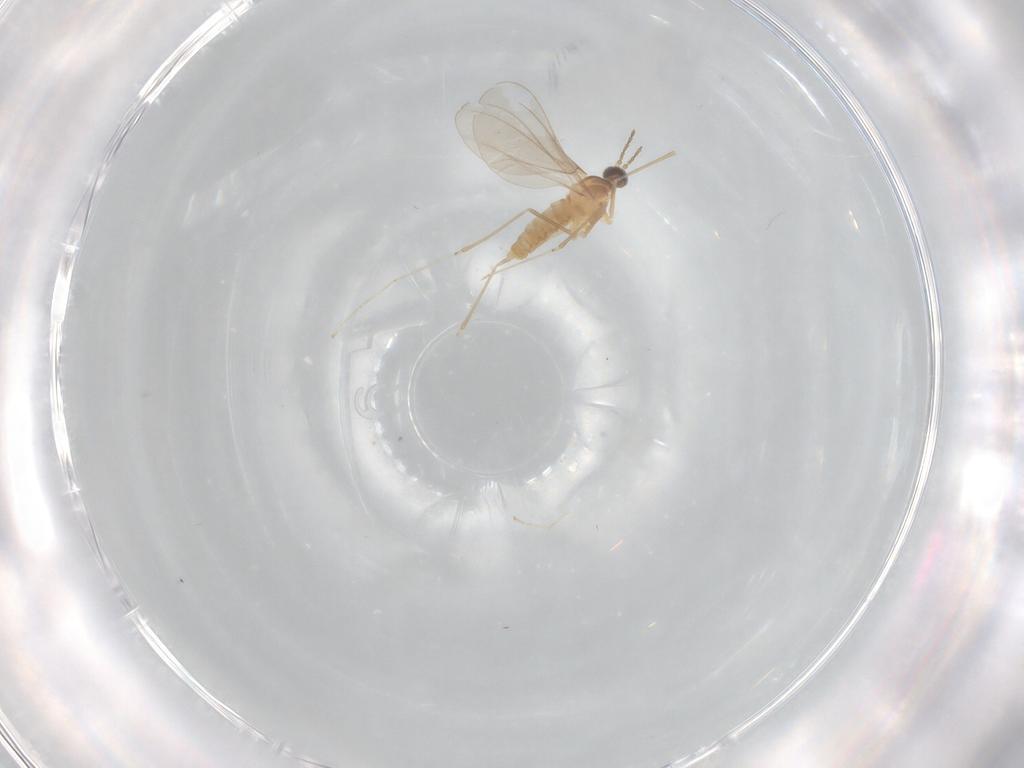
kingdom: Animalia
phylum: Arthropoda
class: Insecta
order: Diptera
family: Cecidomyiidae
